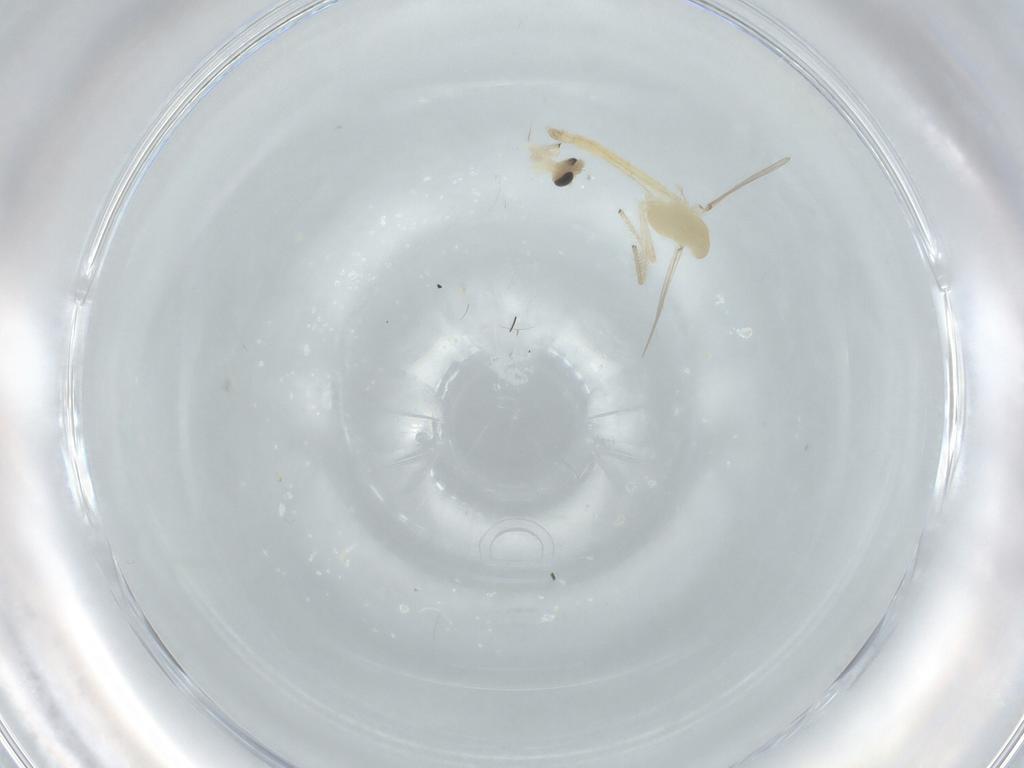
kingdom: Animalia
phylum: Arthropoda
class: Insecta
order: Diptera
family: Chironomidae
